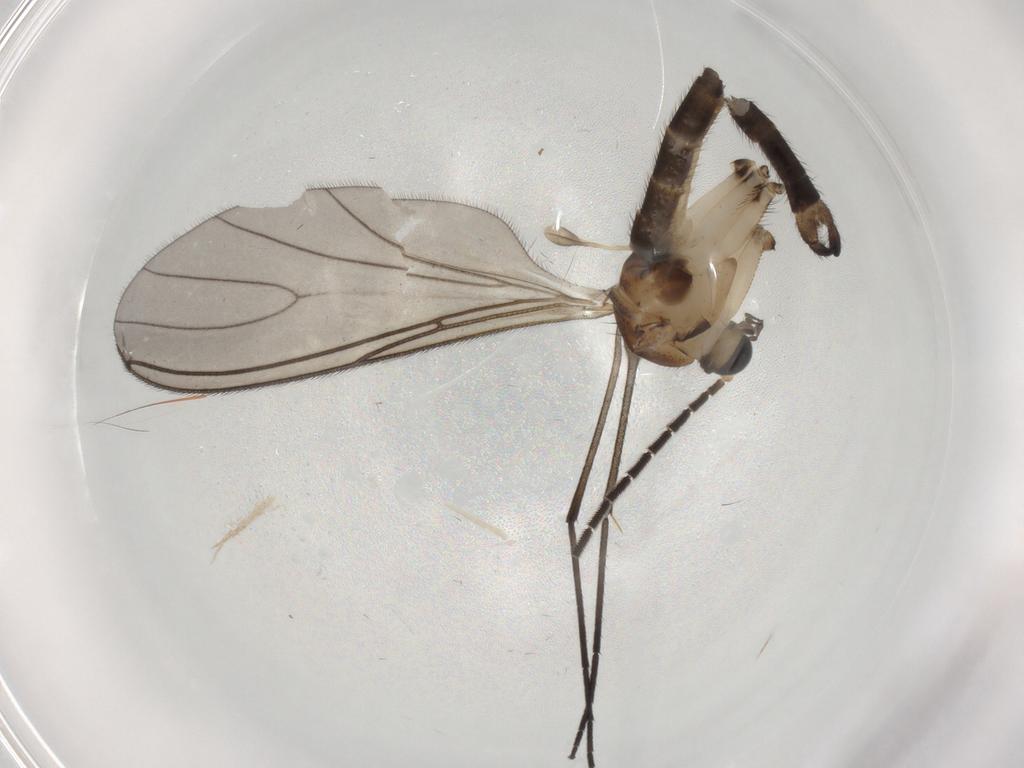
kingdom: Animalia
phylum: Arthropoda
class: Insecta
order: Diptera
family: Sciaridae
